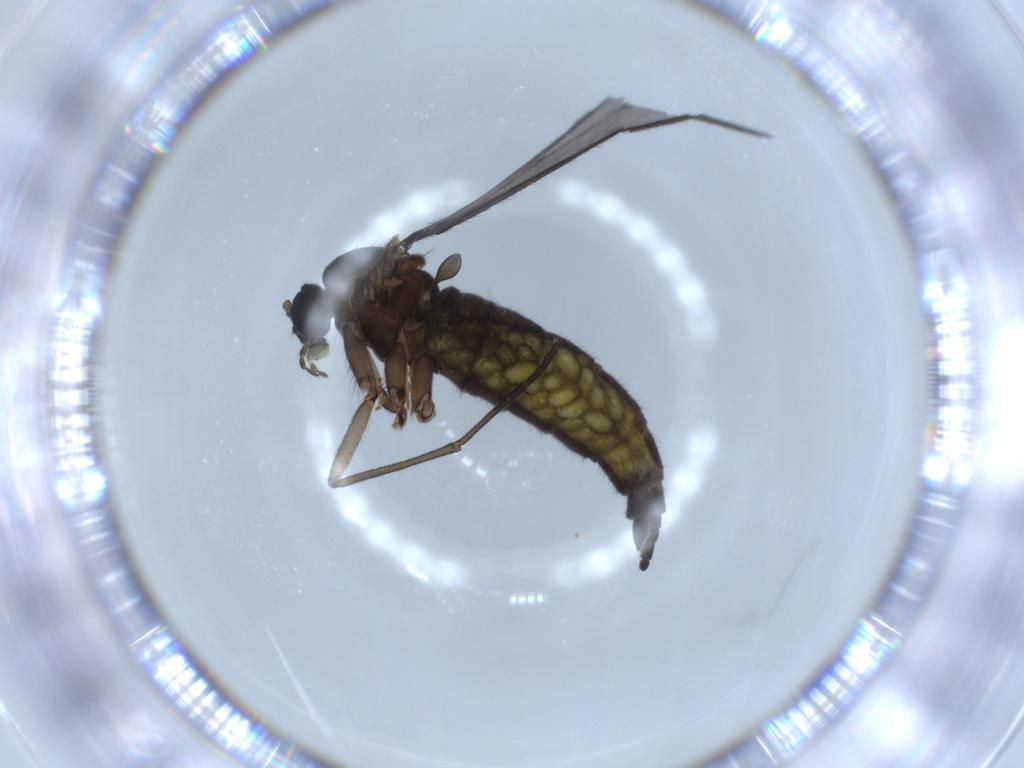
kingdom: Animalia
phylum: Arthropoda
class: Insecta
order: Diptera
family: Sciaridae
